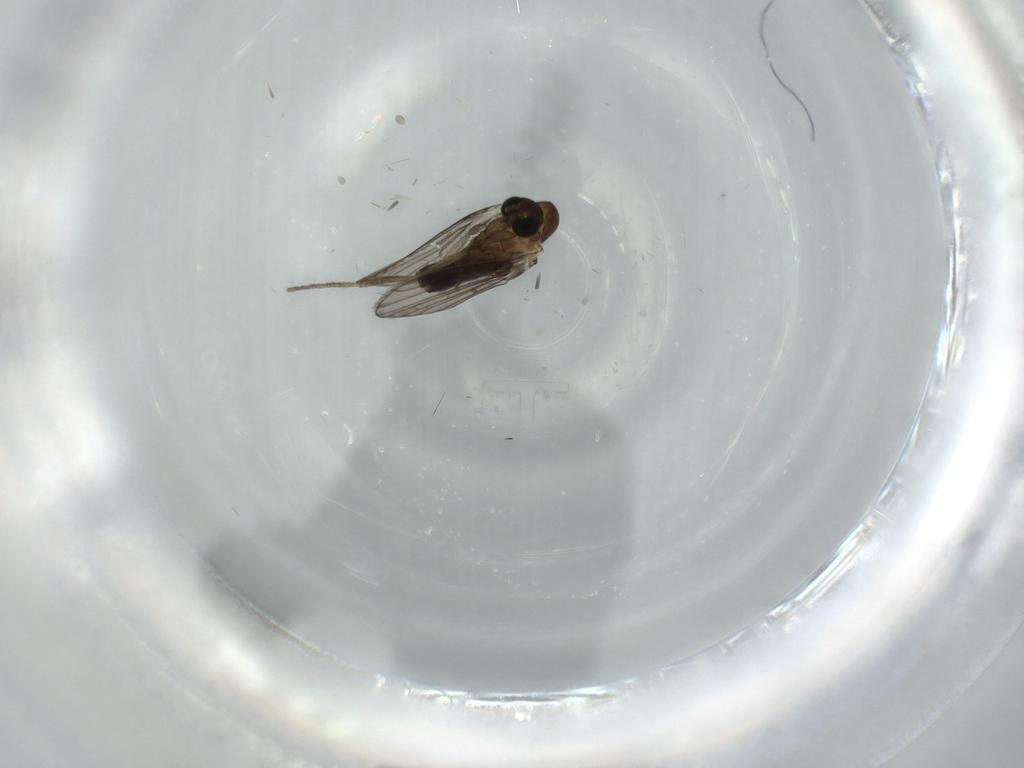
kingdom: Animalia
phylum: Arthropoda
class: Insecta
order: Diptera
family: Psychodidae
